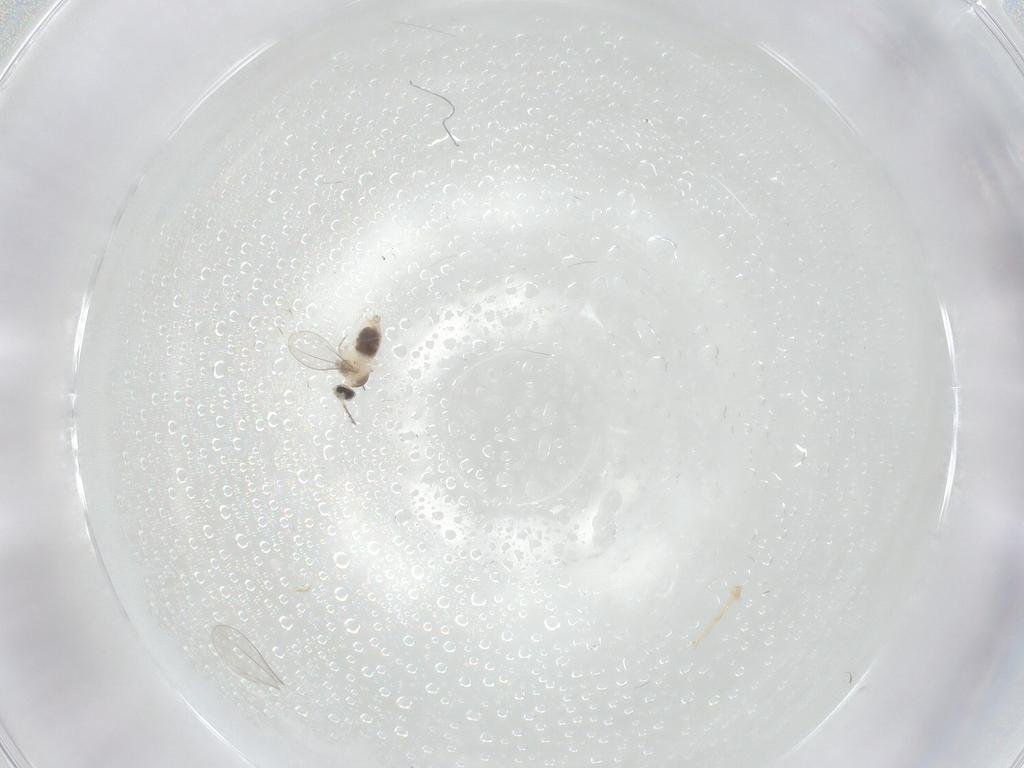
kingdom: Animalia
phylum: Arthropoda
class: Insecta
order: Diptera
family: Cecidomyiidae
